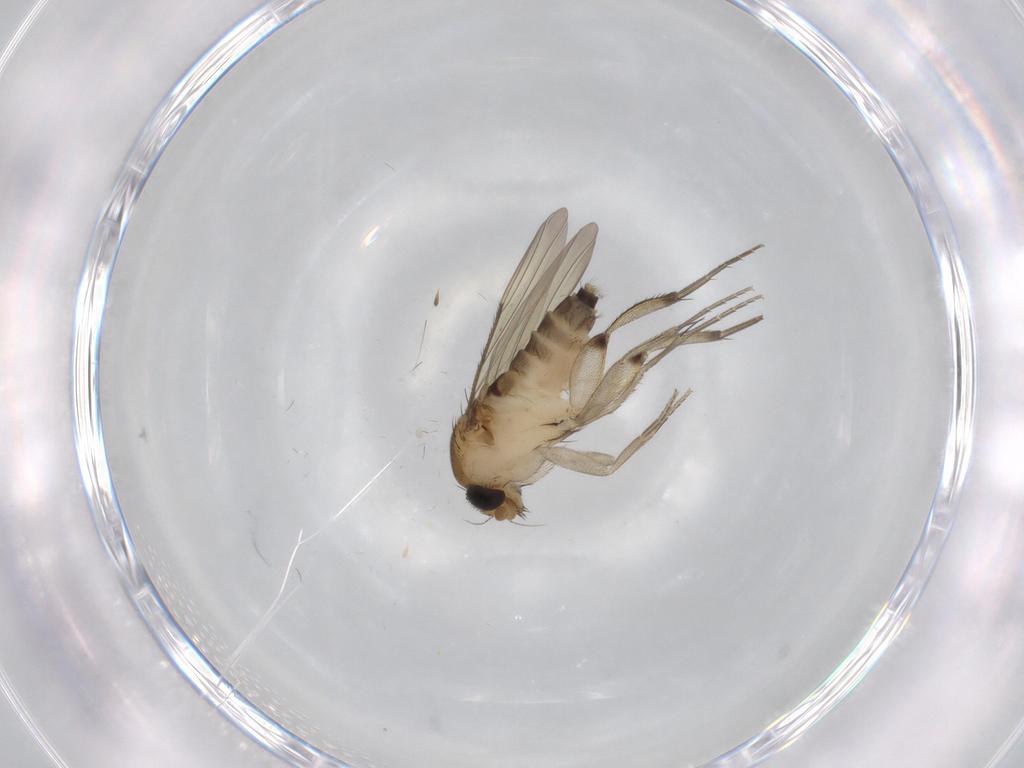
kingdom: Animalia
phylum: Arthropoda
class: Insecta
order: Diptera
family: Phoridae
